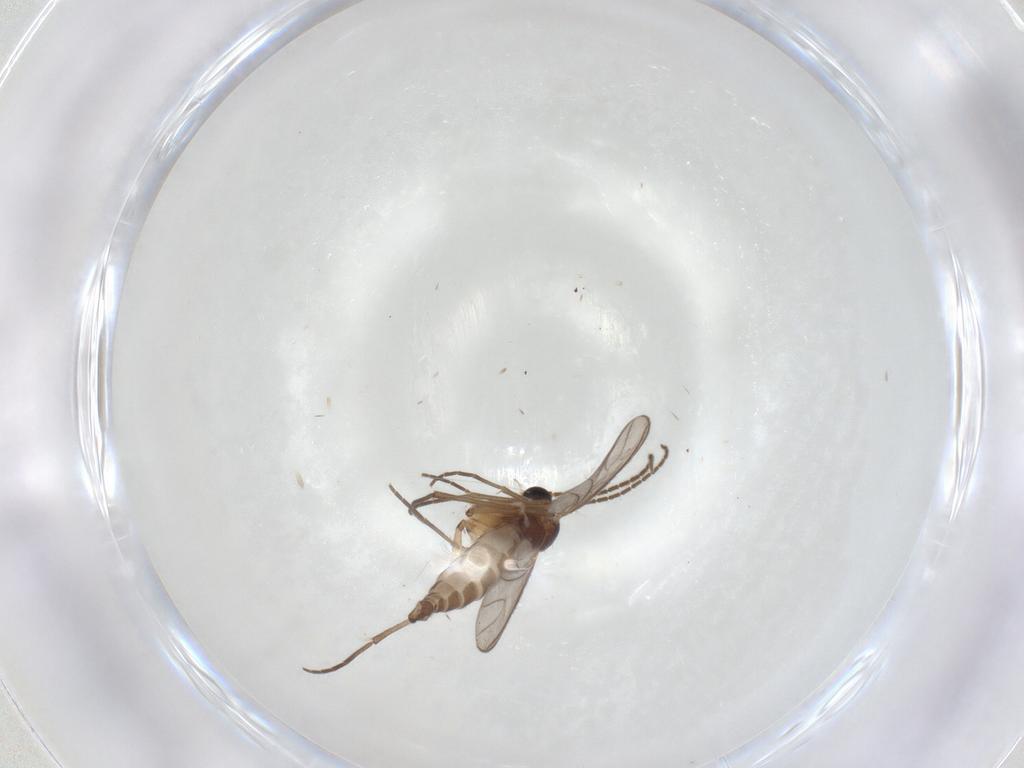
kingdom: Animalia
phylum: Arthropoda
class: Insecta
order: Diptera
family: Sciaridae
